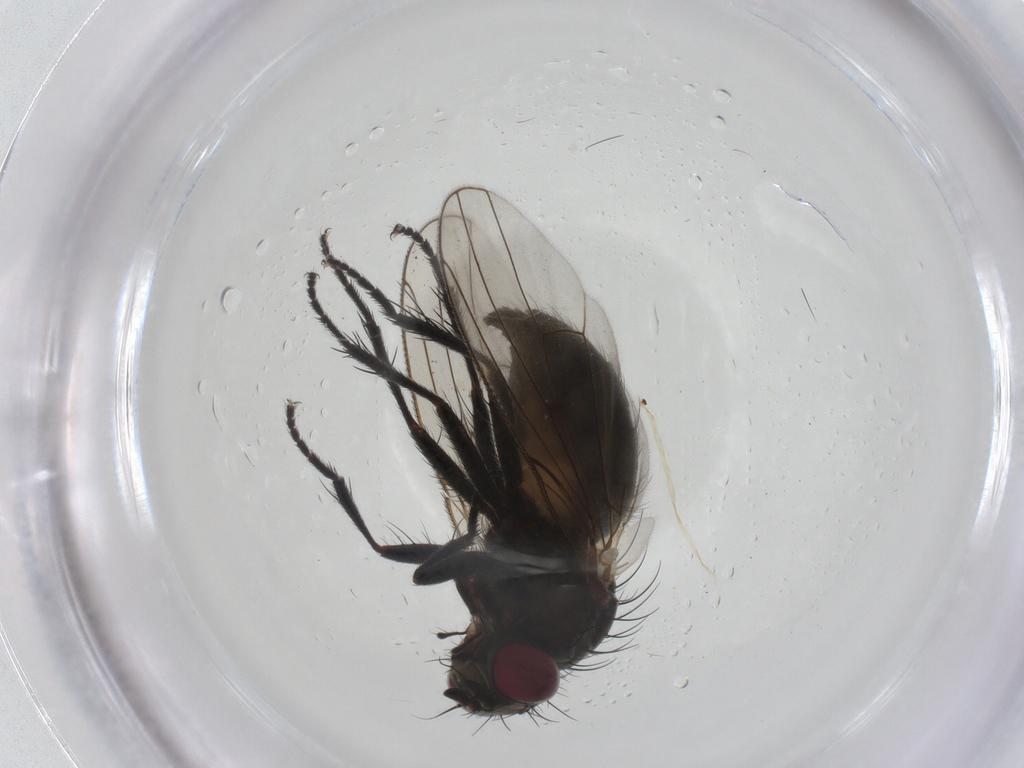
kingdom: Animalia
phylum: Arthropoda
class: Insecta
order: Diptera
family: Muscidae
